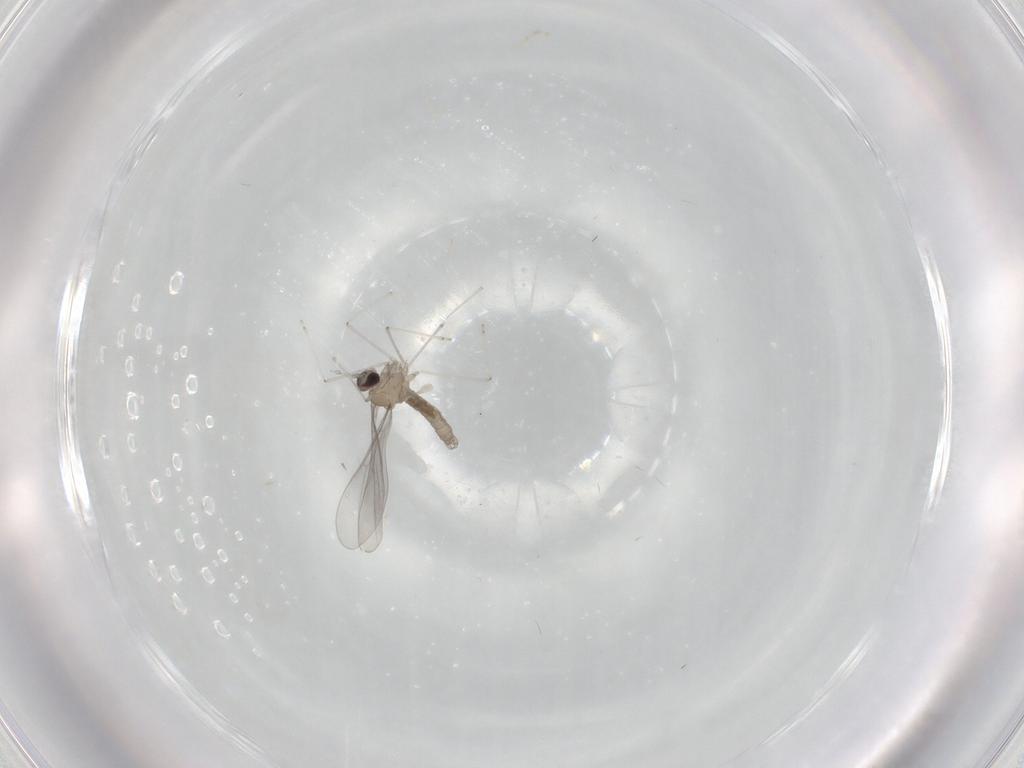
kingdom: Animalia
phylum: Arthropoda
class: Insecta
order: Diptera
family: Cecidomyiidae
